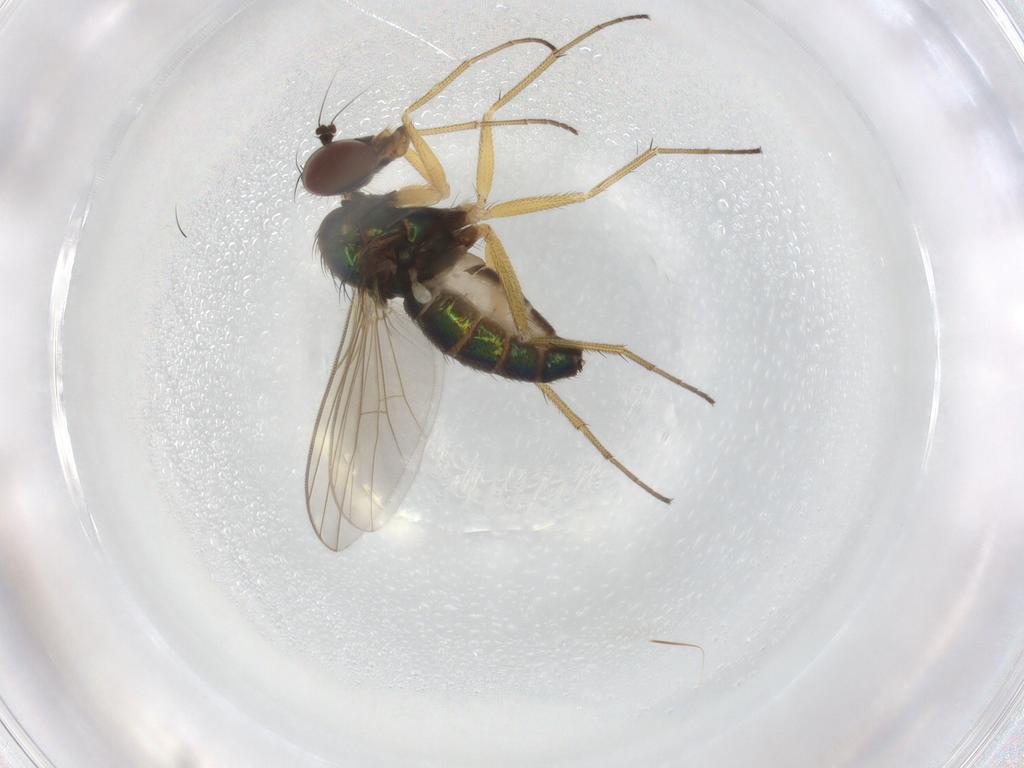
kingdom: Animalia
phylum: Arthropoda
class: Insecta
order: Diptera
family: Dolichopodidae
